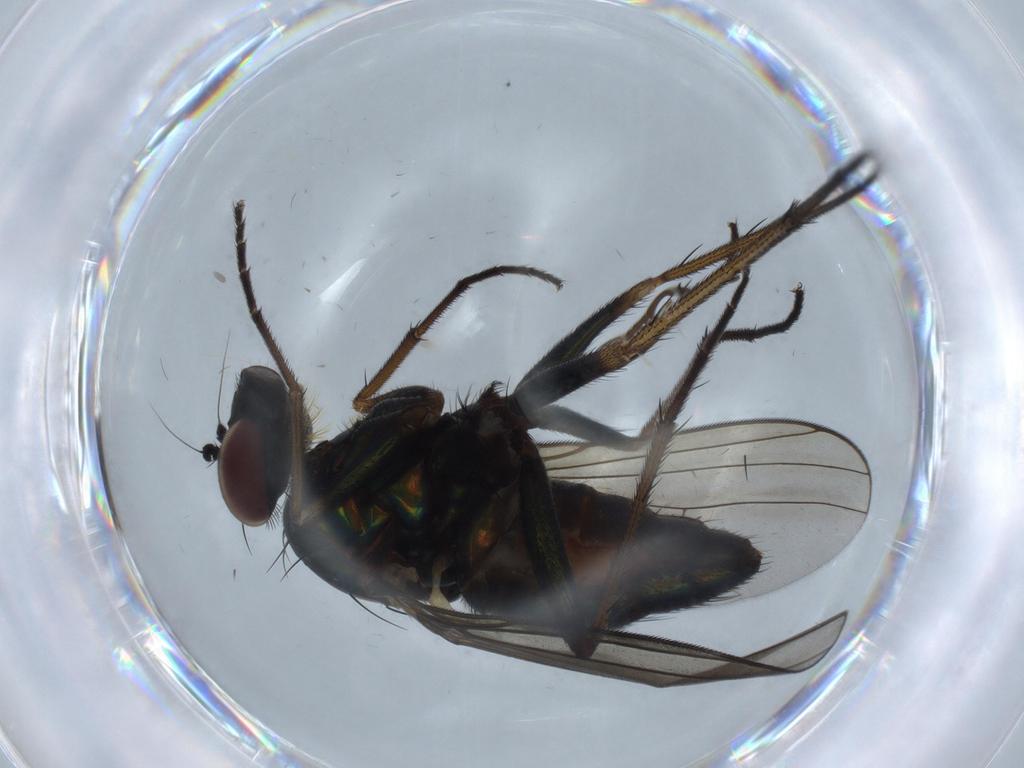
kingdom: Animalia
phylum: Arthropoda
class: Insecta
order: Diptera
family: Dolichopodidae
